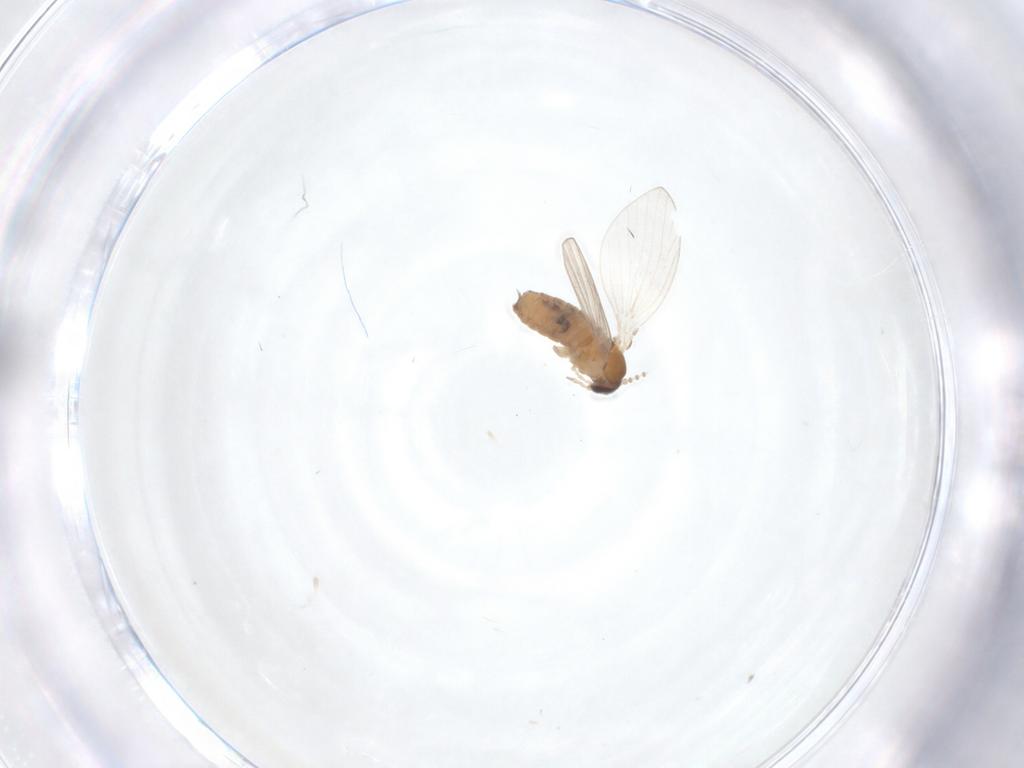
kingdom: Animalia
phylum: Arthropoda
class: Insecta
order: Diptera
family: Psychodidae
